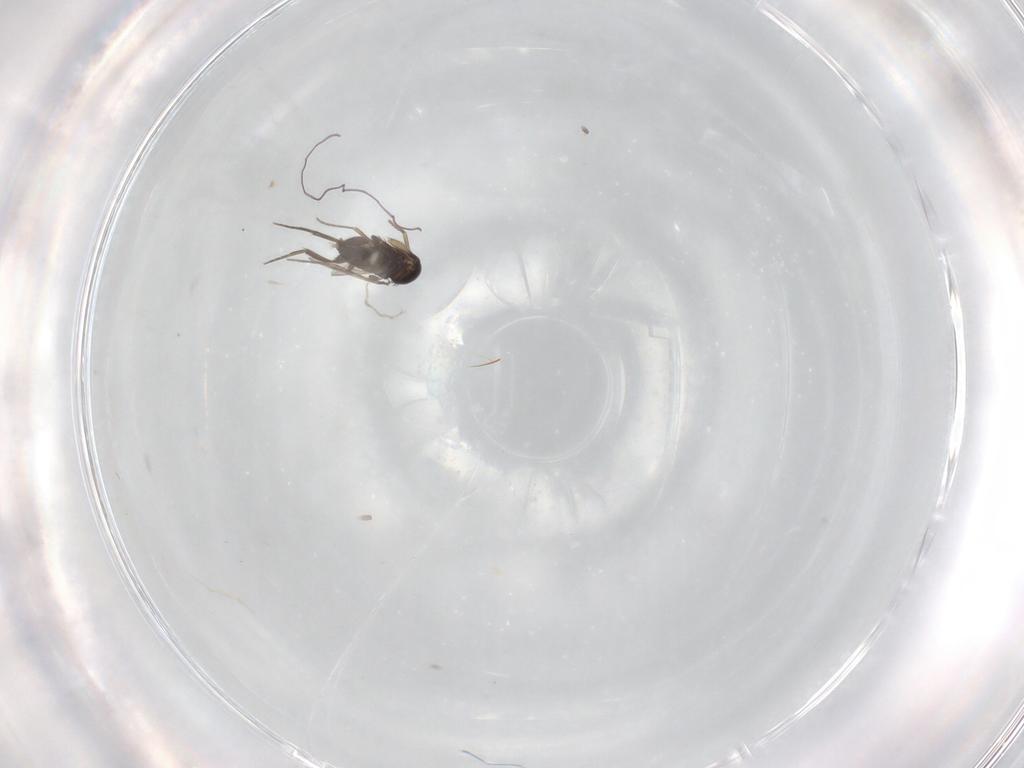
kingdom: Animalia
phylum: Arthropoda
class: Insecta
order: Diptera
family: Phoridae
